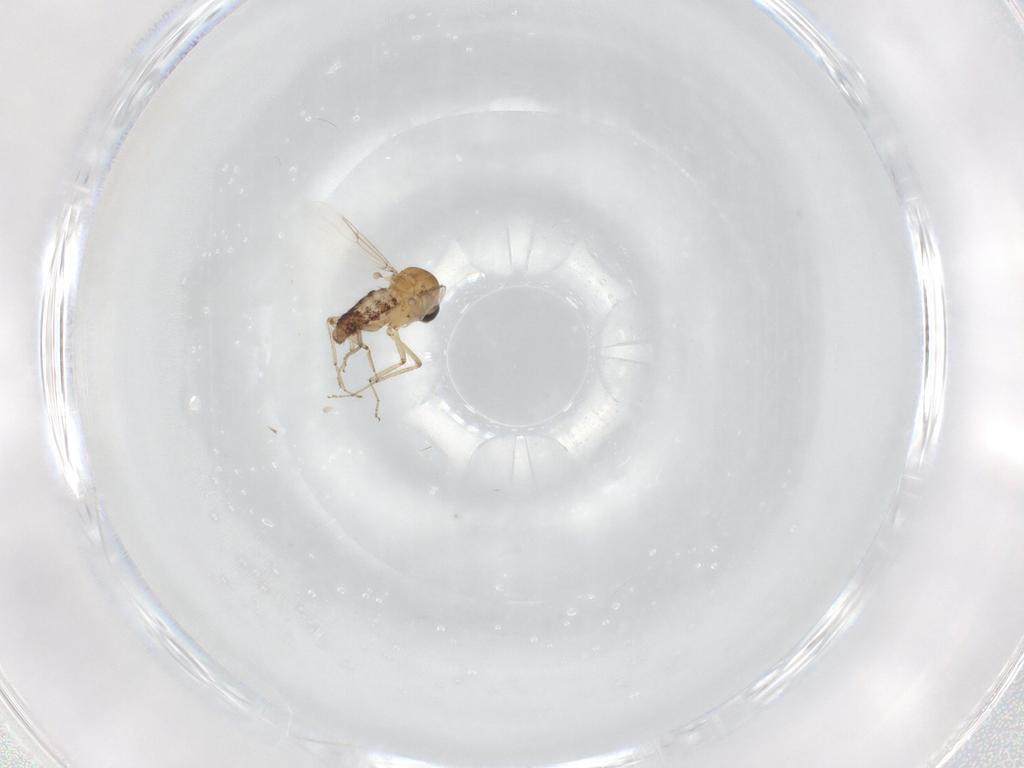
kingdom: Animalia
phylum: Arthropoda
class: Insecta
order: Diptera
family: Ceratopogonidae
